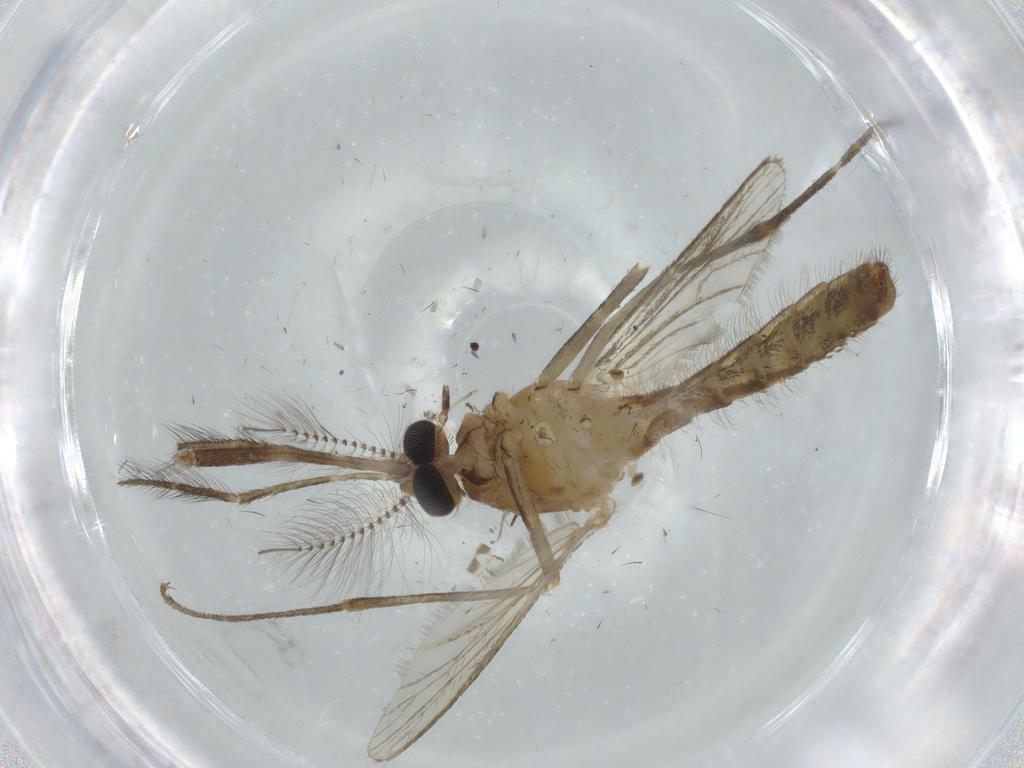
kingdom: Animalia
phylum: Arthropoda
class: Insecta
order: Diptera
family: Cecidomyiidae
